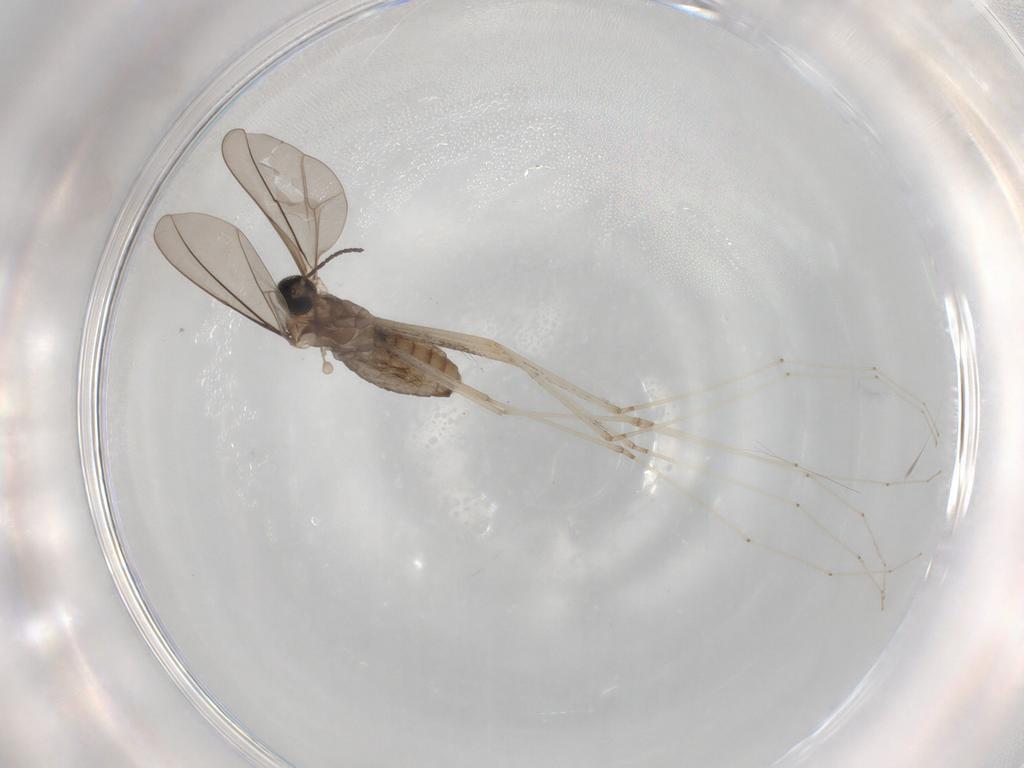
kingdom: Animalia
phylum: Arthropoda
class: Insecta
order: Diptera
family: Cecidomyiidae
